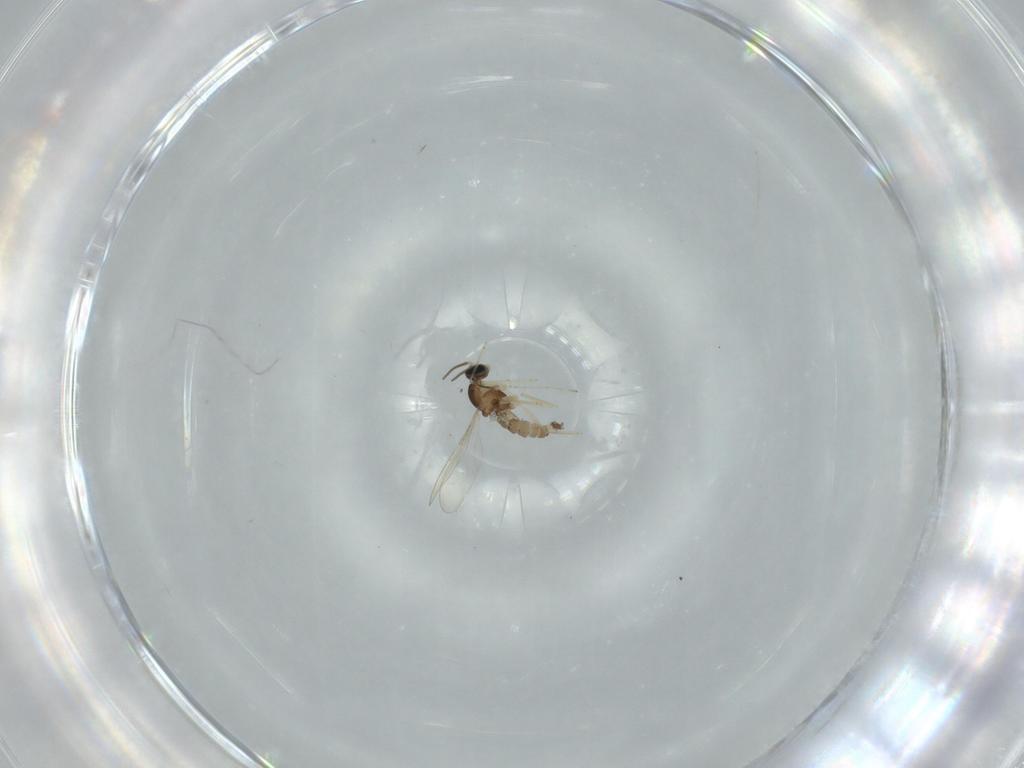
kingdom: Animalia
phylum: Arthropoda
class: Insecta
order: Diptera
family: Cecidomyiidae
